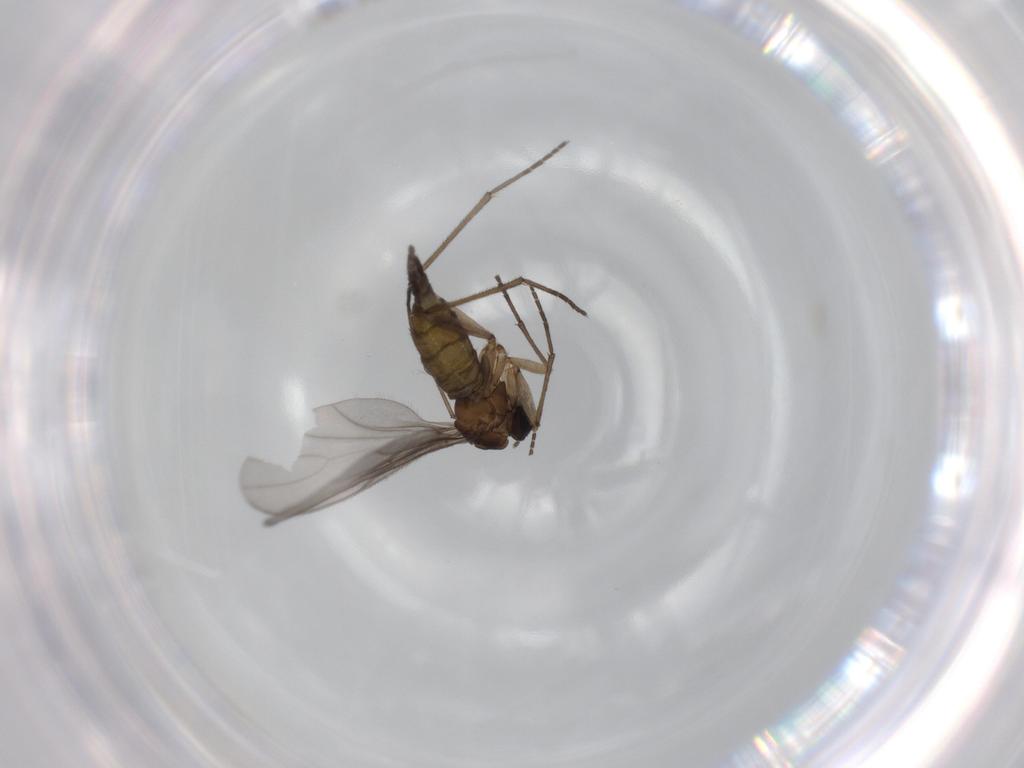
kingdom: Animalia
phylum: Arthropoda
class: Insecta
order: Diptera
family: Sciaridae
